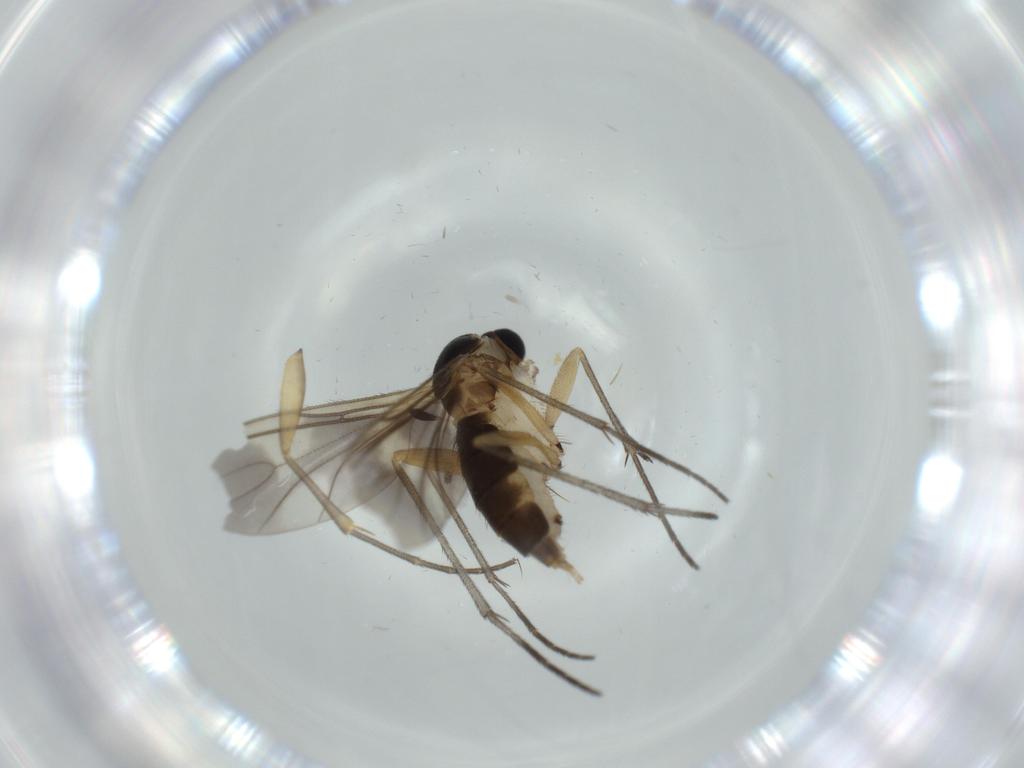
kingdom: Animalia
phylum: Arthropoda
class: Insecta
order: Diptera
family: Sciaridae
